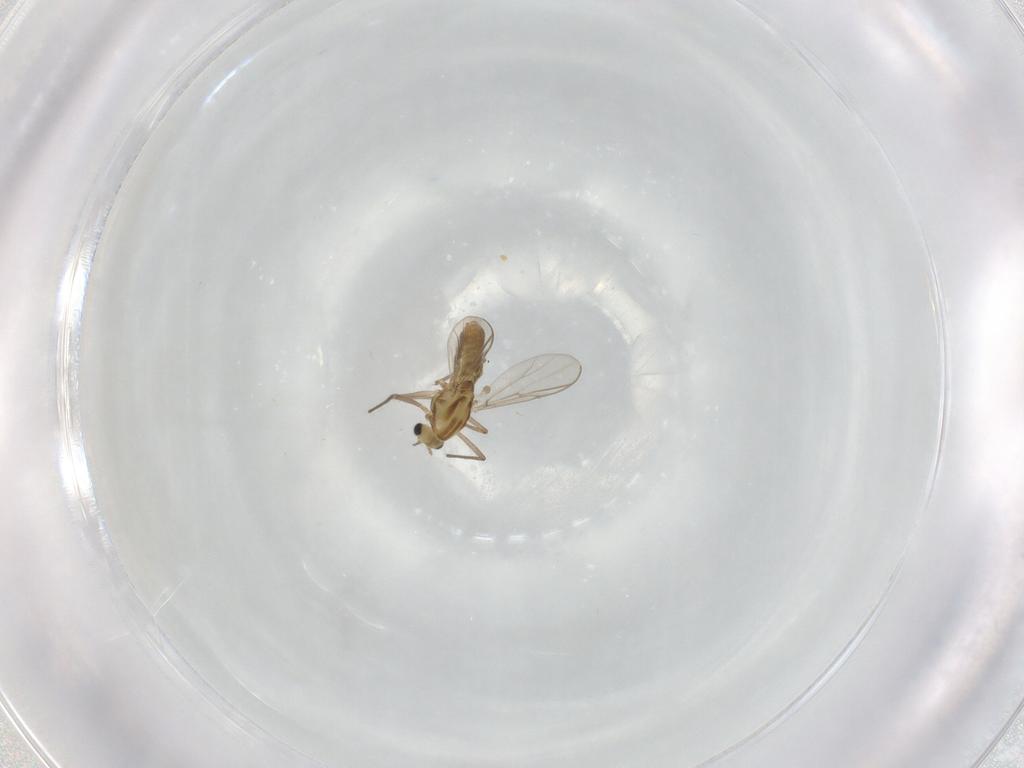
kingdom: Animalia
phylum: Arthropoda
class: Insecta
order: Diptera
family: Chironomidae
